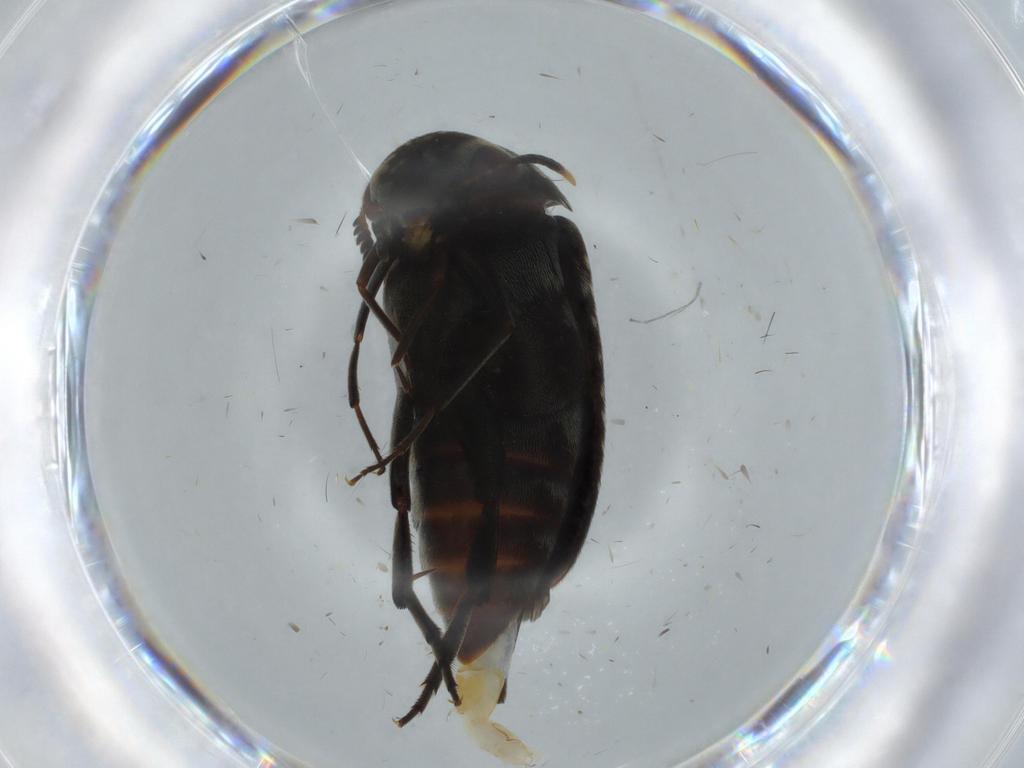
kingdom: Animalia
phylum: Arthropoda
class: Insecta
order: Coleoptera
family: Mordellidae
